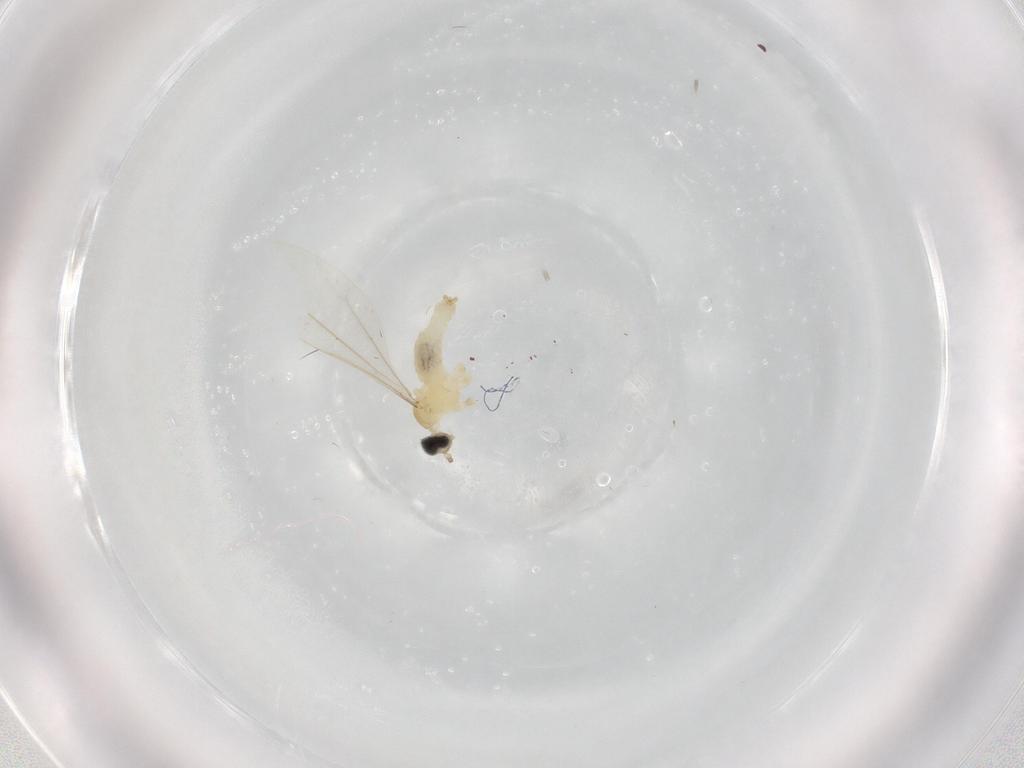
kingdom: Animalia
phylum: Arthropoda
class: Insecta
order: Diptera
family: Cecidomyiidae
